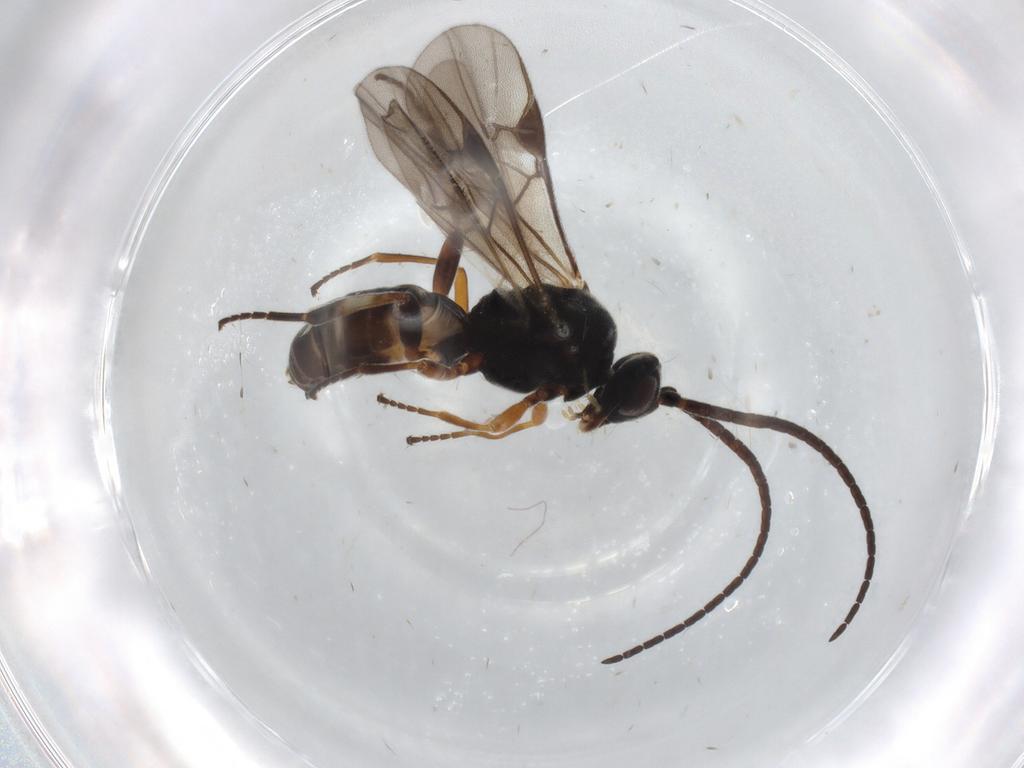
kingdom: Animalia
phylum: Arthropoda
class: Insecta
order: Hymenoptera
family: Braconidae
